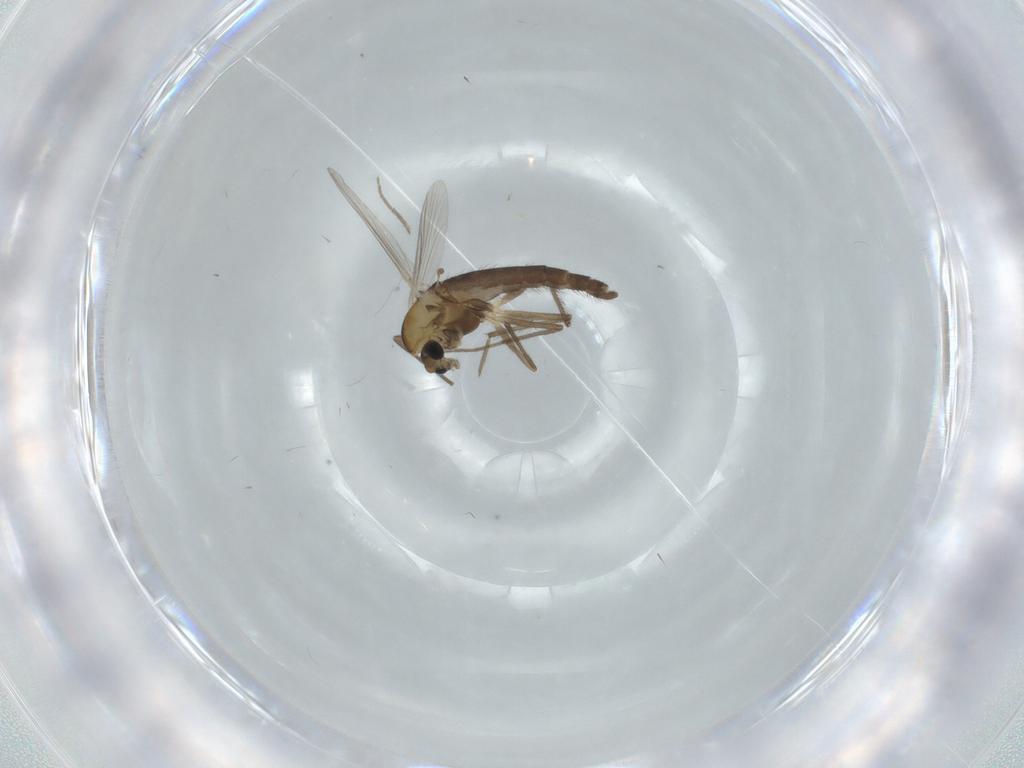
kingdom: Animalia
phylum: Arthropoda
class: Insecta
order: Diptera
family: Chironomidae
